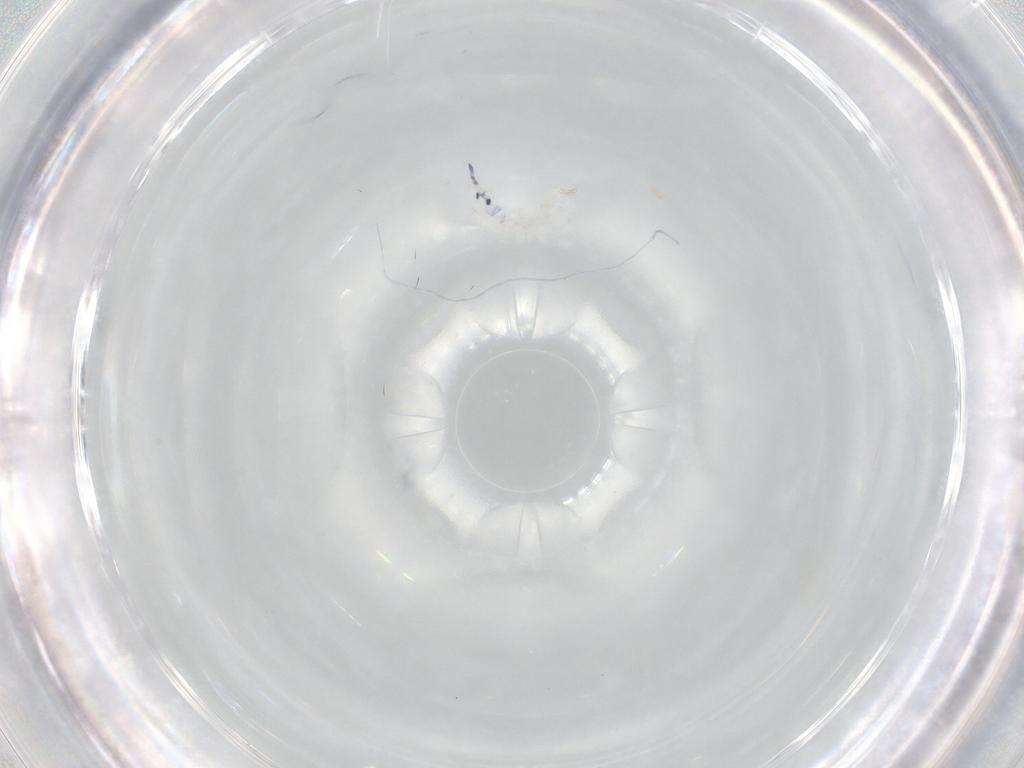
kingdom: Animalia
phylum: Arthropoda
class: Collembola
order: Entomobryomorpha
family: Entomobryidae
